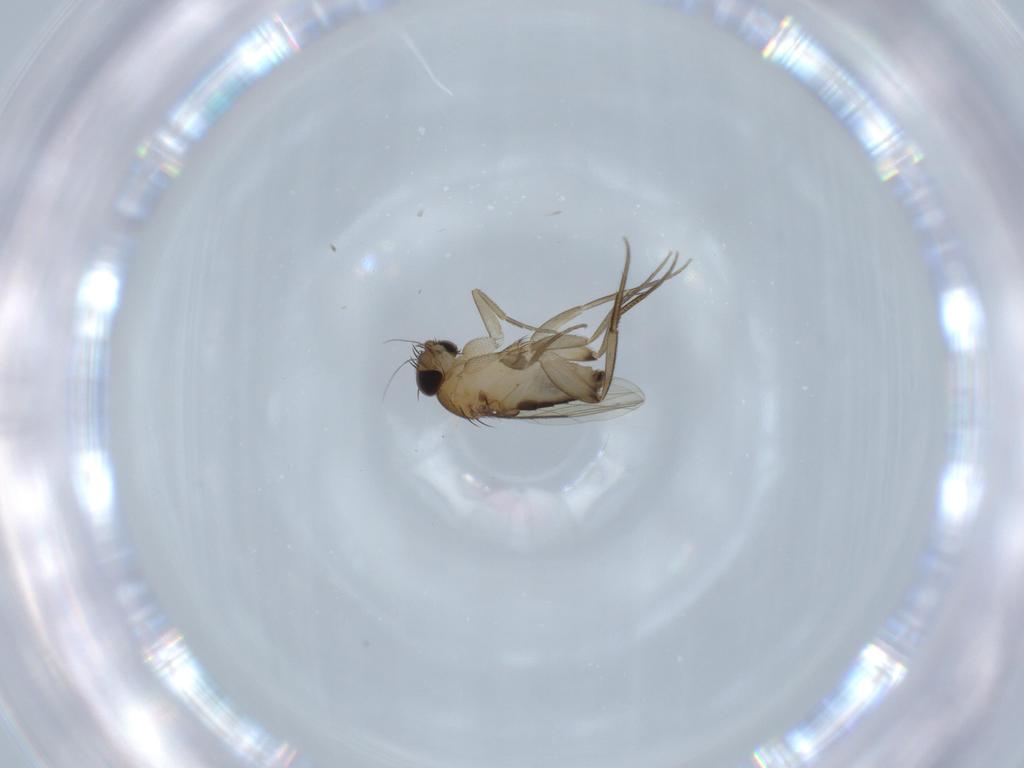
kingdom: Animalia
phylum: Arthropoda
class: Insecta
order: Diptera
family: Phoridae
